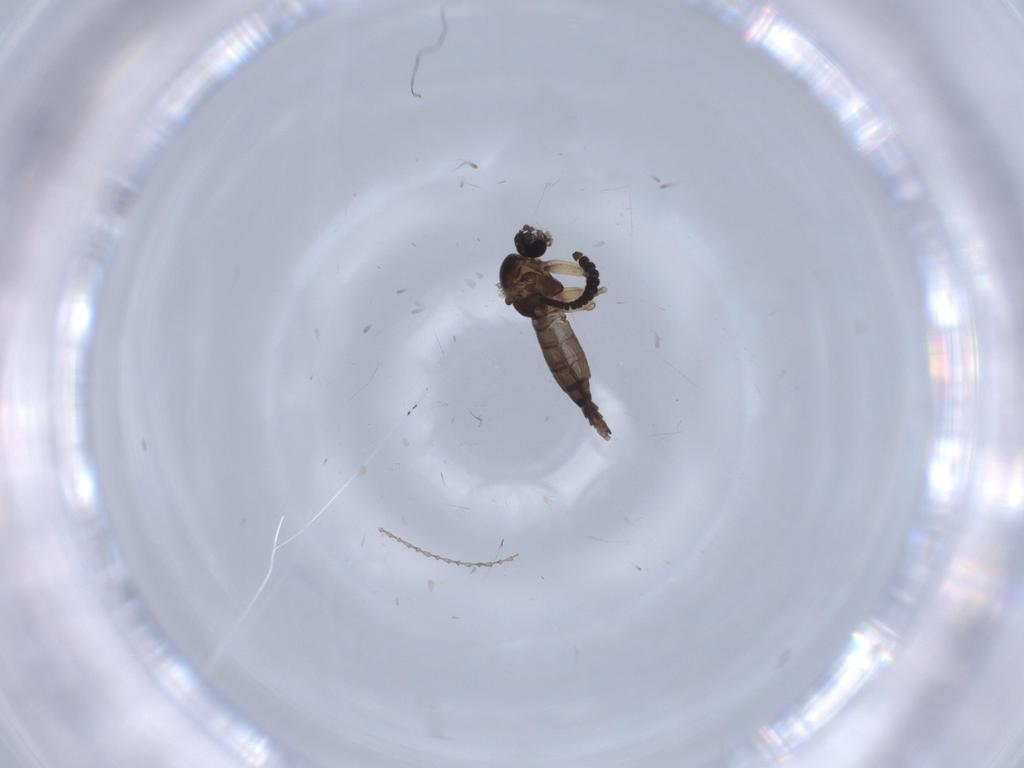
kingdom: Animalia
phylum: Arthropoda
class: Insecta
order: Diptera
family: Sciaridae
